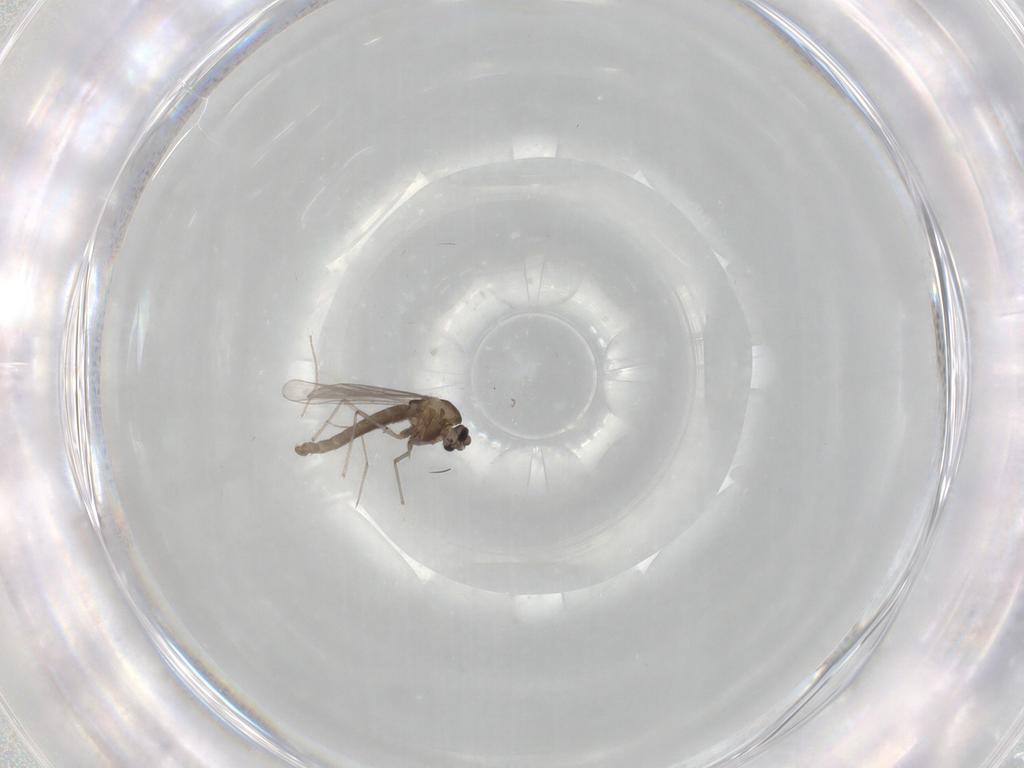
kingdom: Animalia
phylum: Arthropoda
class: Insecta
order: Diptera
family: Chironomidae
